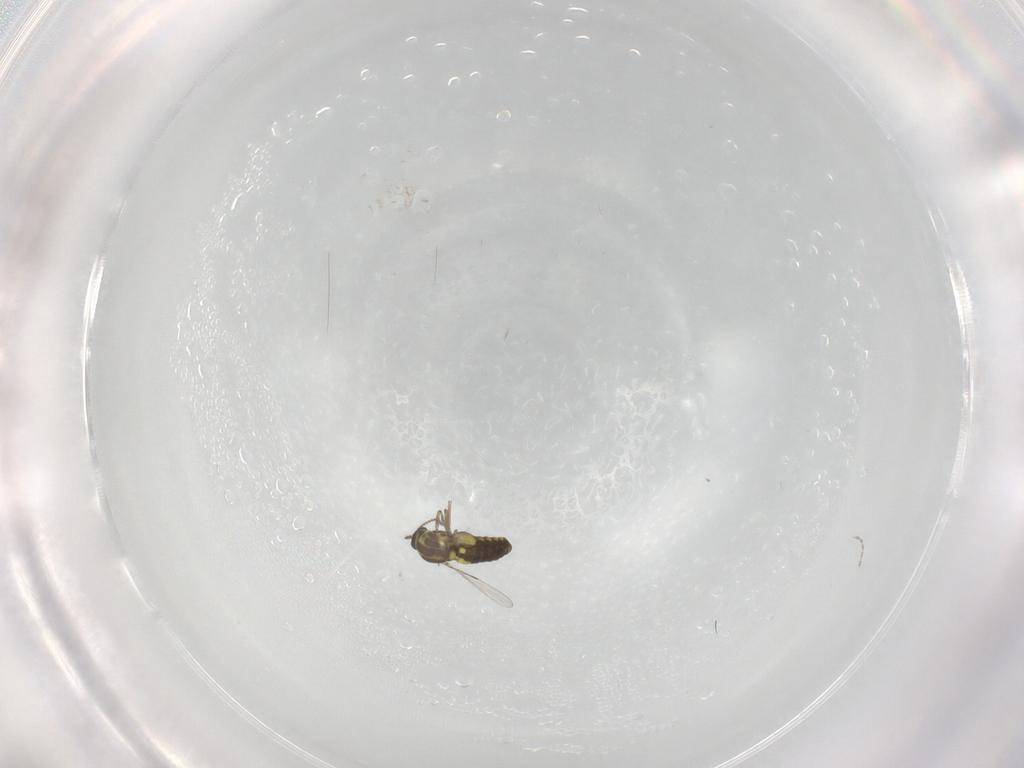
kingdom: Animalia
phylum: Arthropoda
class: Insecta
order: Diptera
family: Cecidomyiidae
